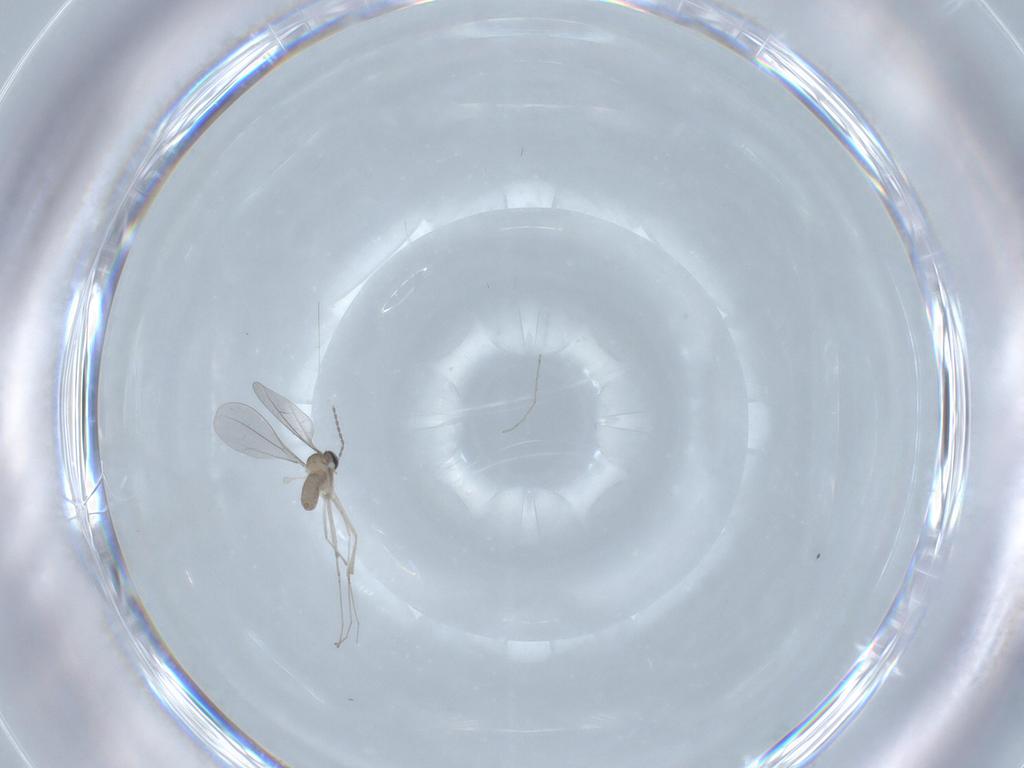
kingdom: Animalia
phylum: Arthropoda
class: Insecta
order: Diptera
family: Cecidomyiidae
